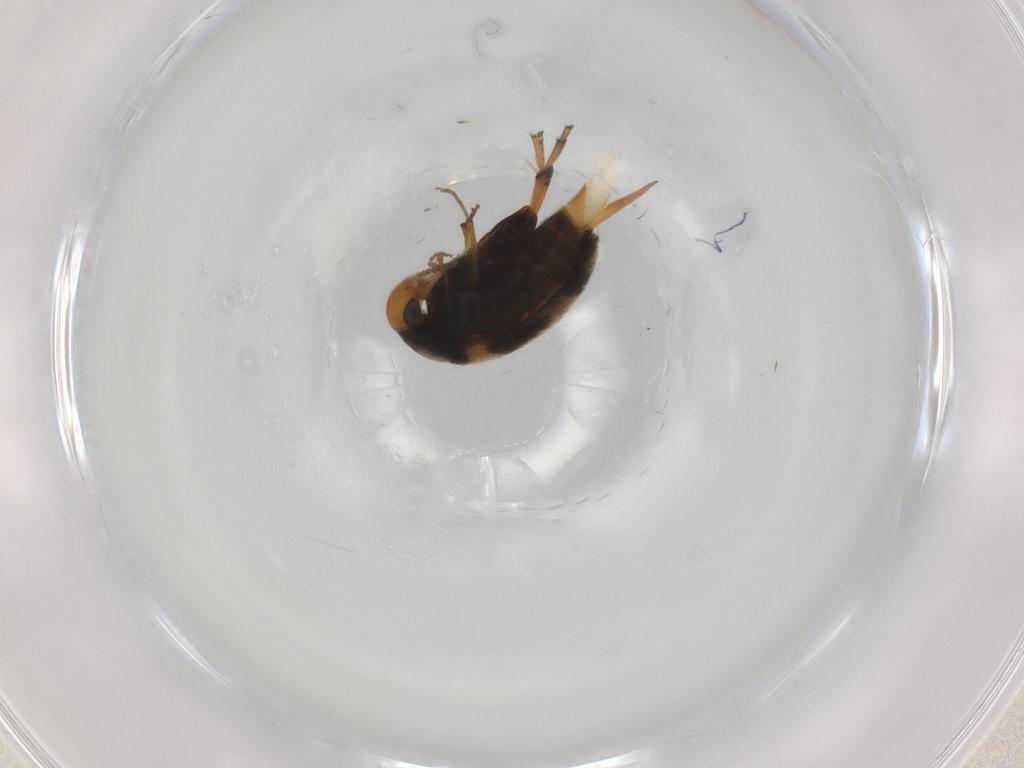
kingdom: Animalia
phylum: Arthropoda
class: Insecta
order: Coleoptera
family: Mordellidae
